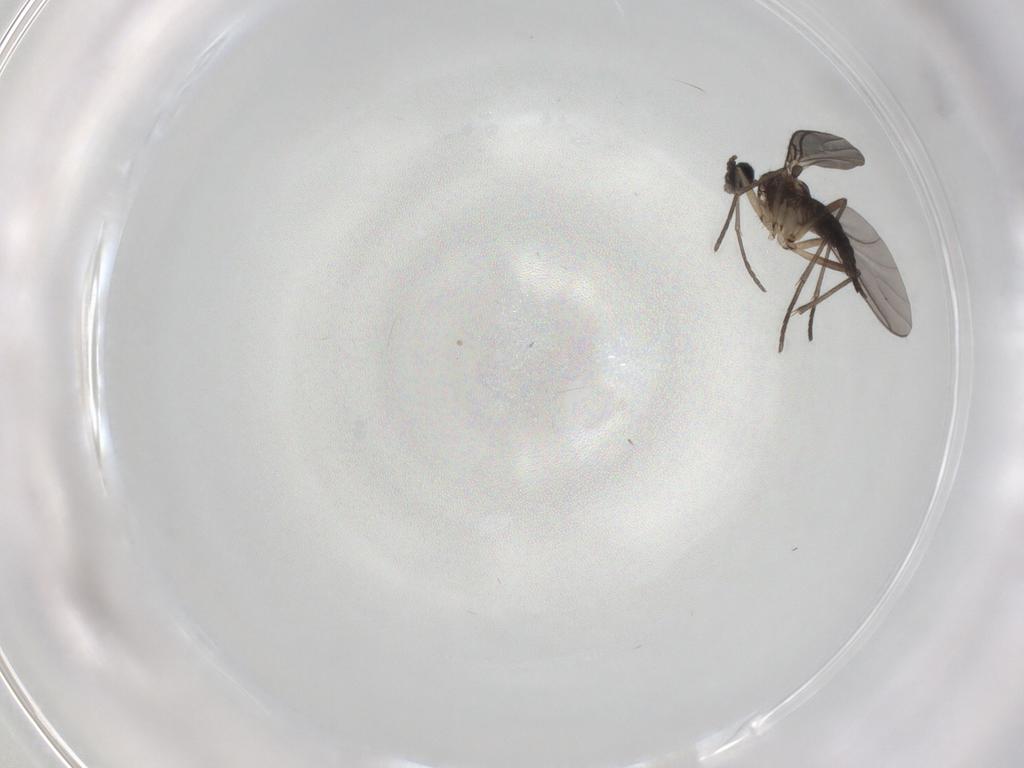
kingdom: Animalia
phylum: Arthropoda
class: Insecta
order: Diptera
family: Chironomidae
